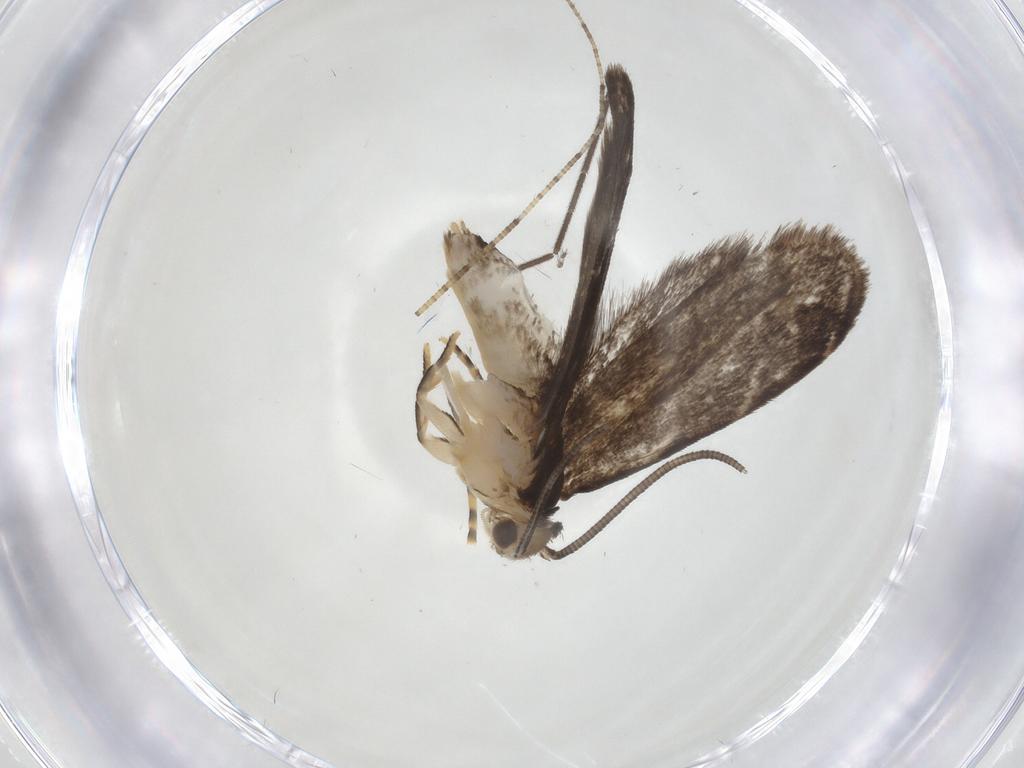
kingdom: Animalia
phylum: Arthropoda
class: Insecta
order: Lepidoptera
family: Dryadaulidae
